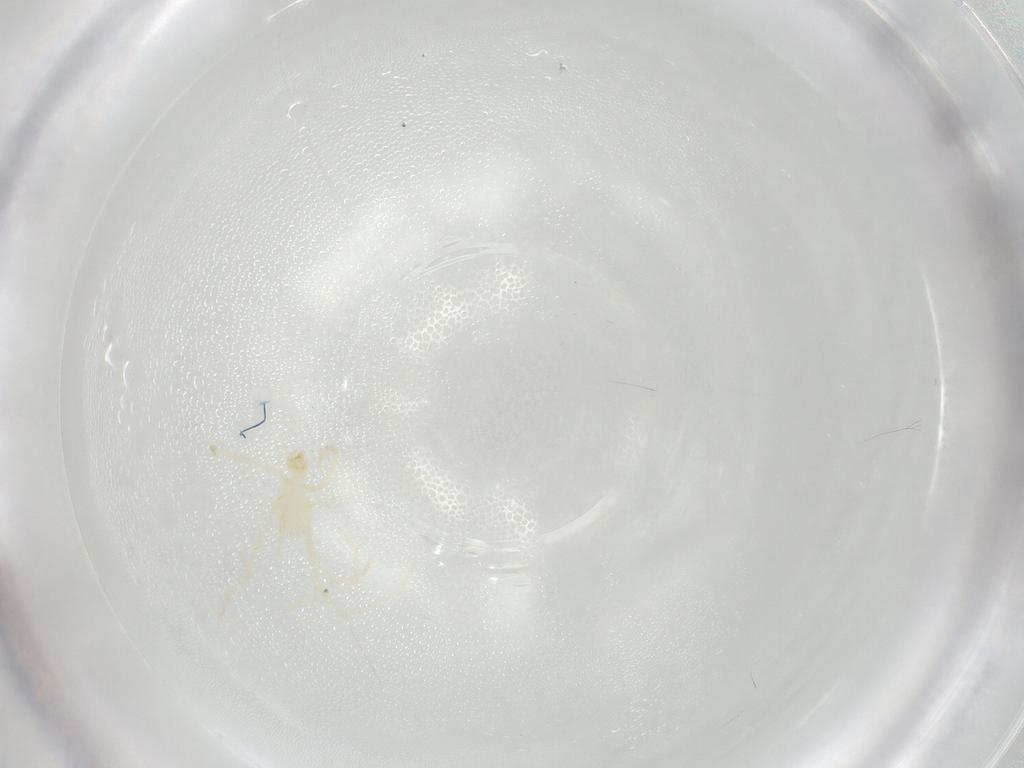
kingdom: Animalia
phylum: Arthropoda
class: Arachnida
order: Trombidiformes
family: Erythraeidae
